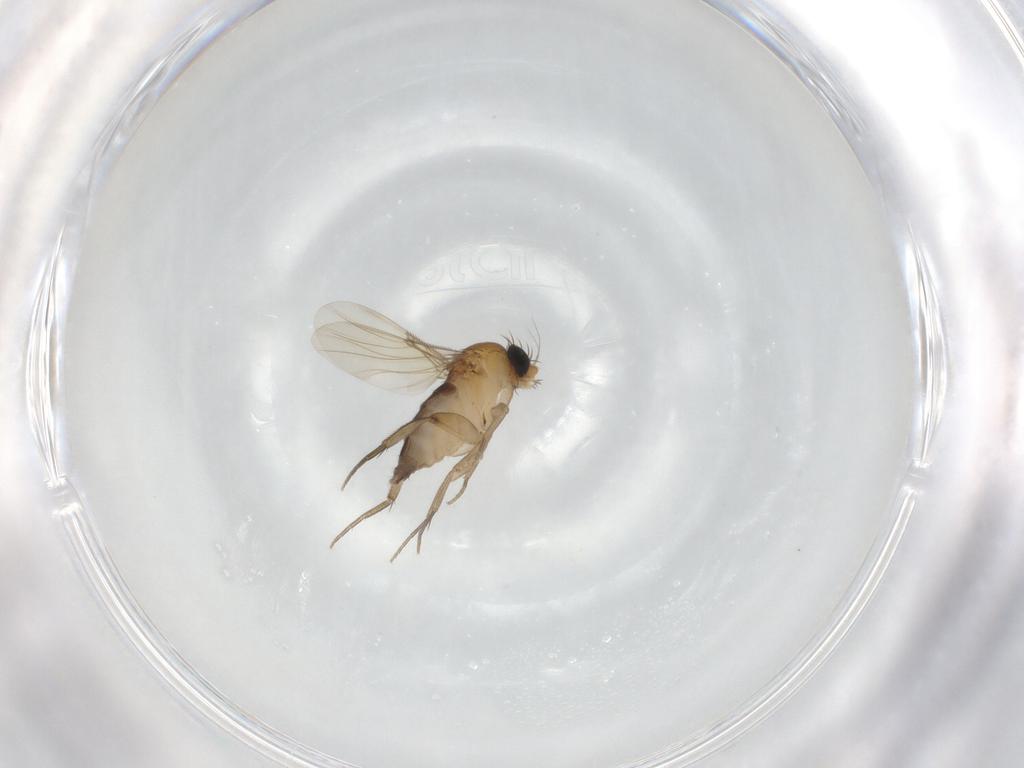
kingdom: Animalia
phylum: Arthropoda
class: Insecta
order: Diptera
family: Phoridae
